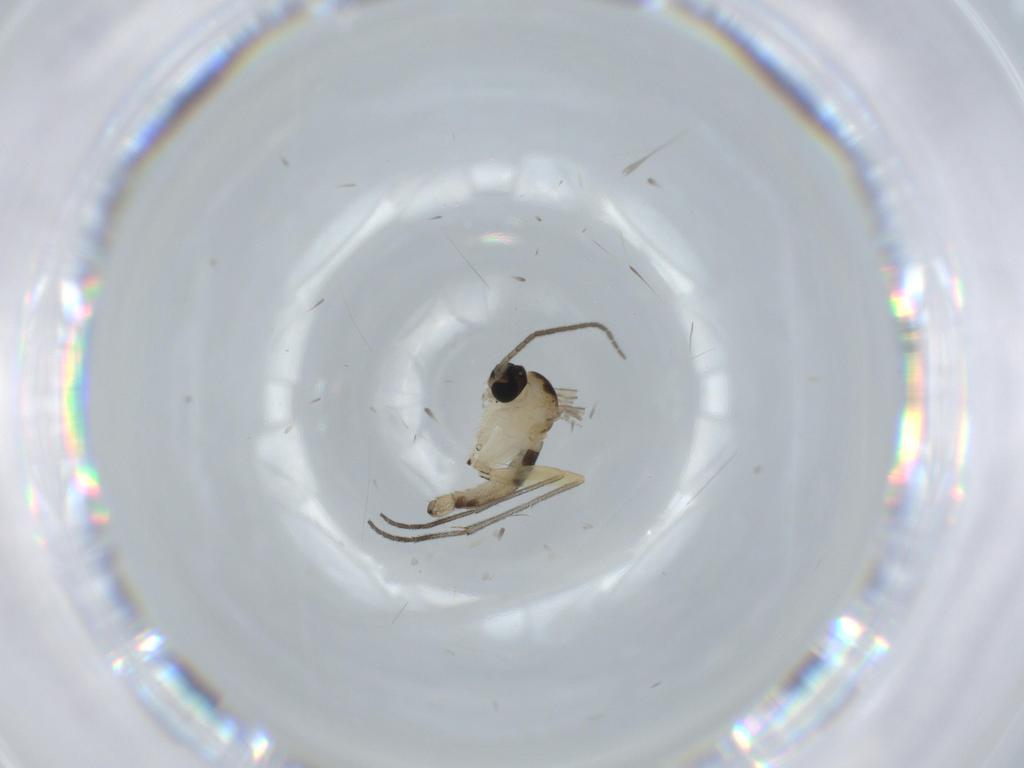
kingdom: Animalia
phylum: Arthropoda
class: Insecta
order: Diptera
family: Sciaridae
